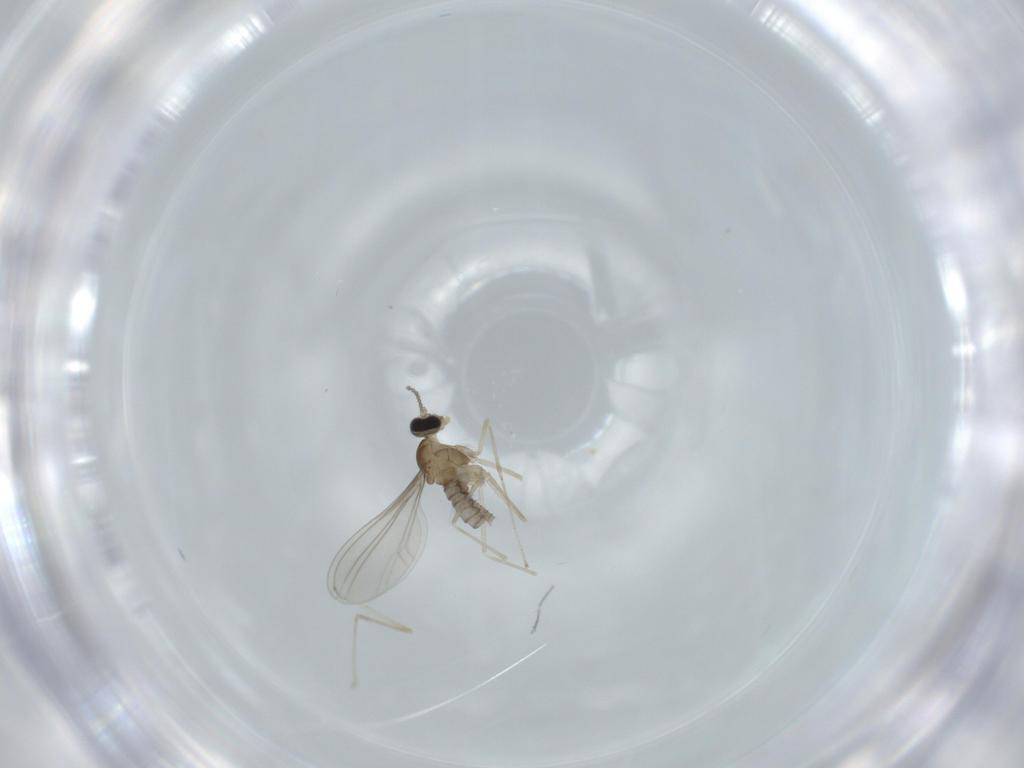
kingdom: Animalia
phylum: Arthropoda
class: Insecta
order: Diptera
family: Cecidomyiidae
